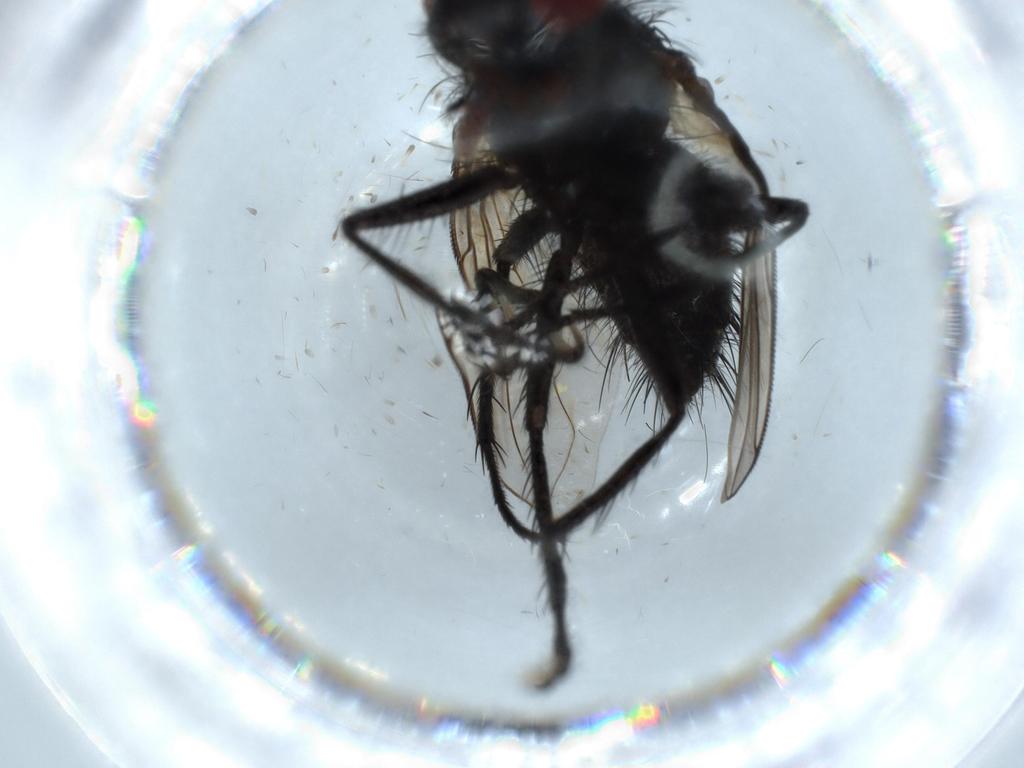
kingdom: Animalia
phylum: Arthropoda
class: Insecta
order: Diptera
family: Tachinidae
